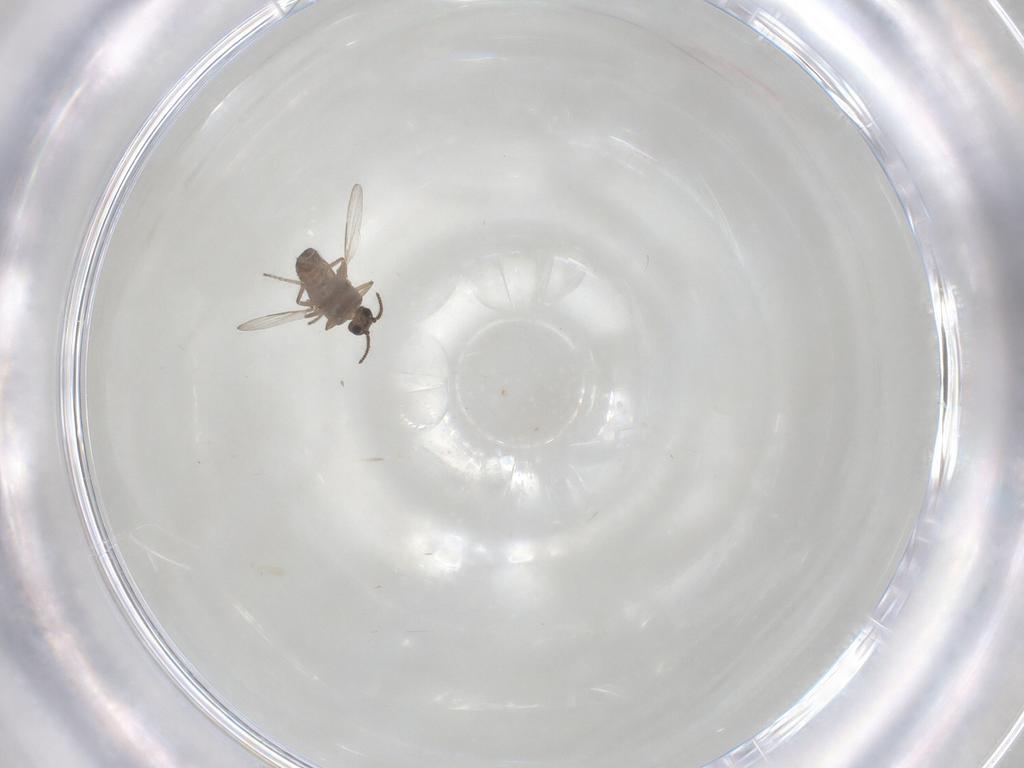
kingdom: Animalia
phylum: Arthropoda
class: Insecta
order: Diptera
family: Ceratopogonidae
